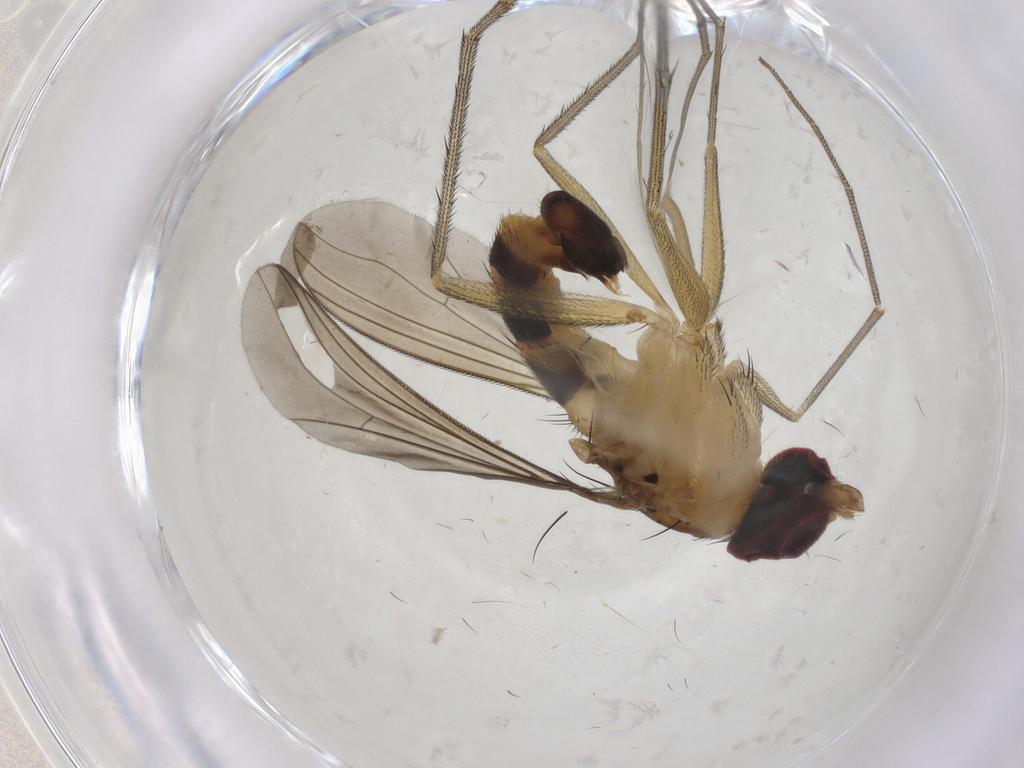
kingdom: Animalia
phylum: Arthropoda
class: Insecta
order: Diptera
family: Dolichopodidae
